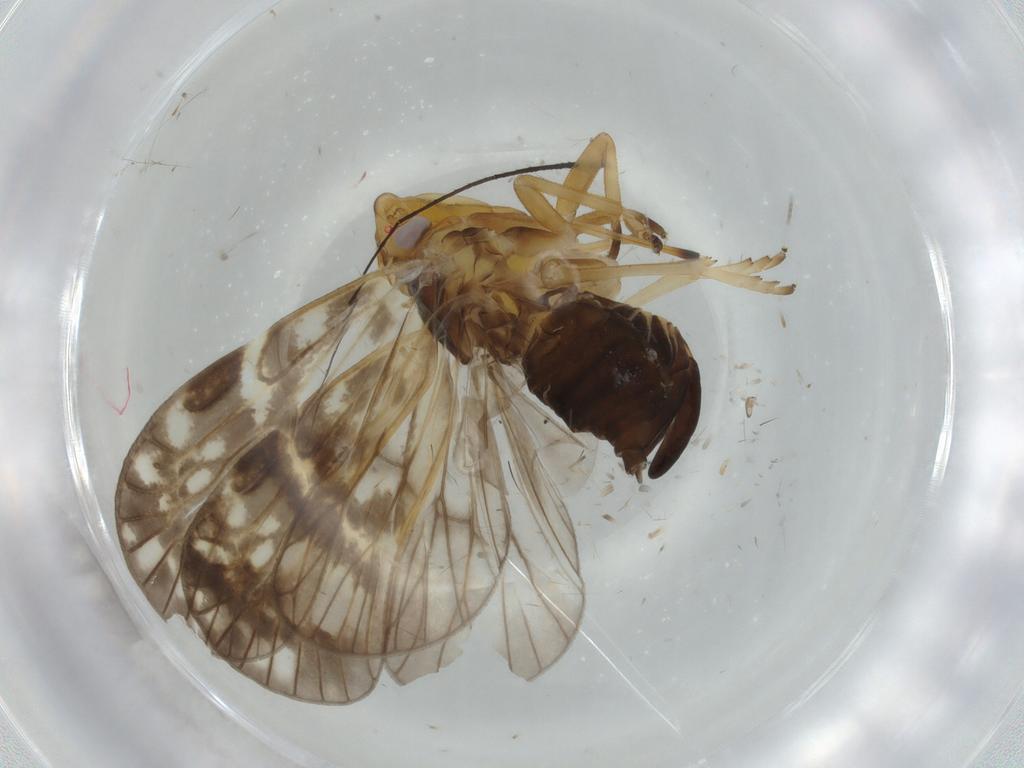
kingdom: Animalia
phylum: Arthropoda
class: Insecta
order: Hemiptera
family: Cixiidae
